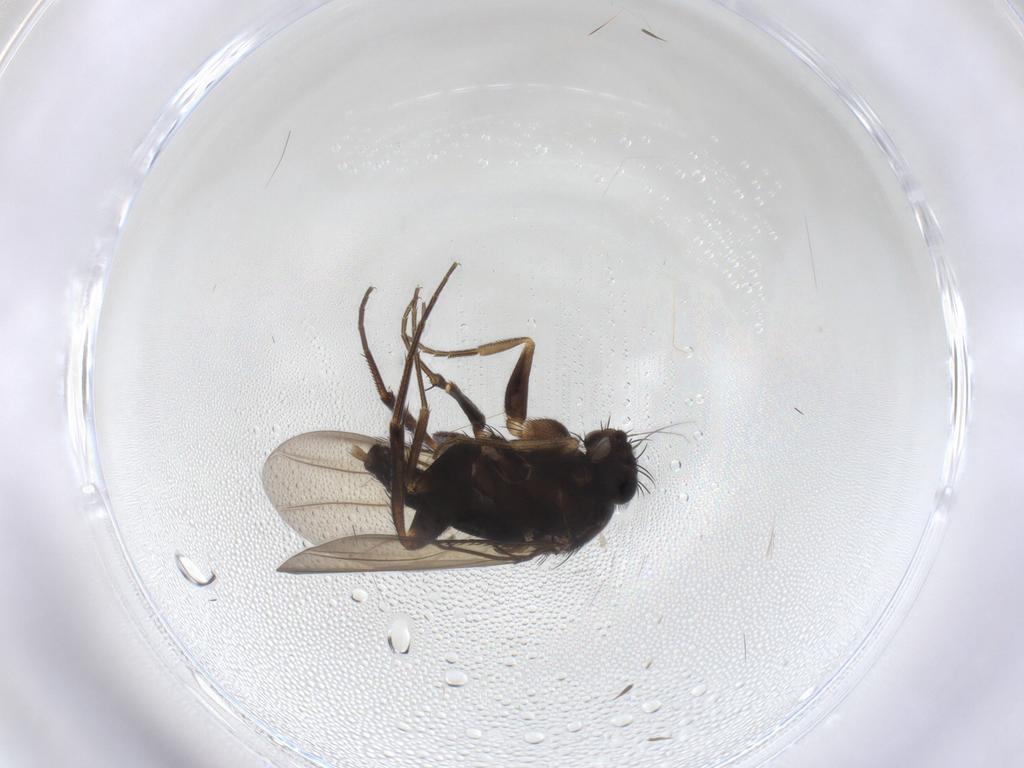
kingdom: Animalia
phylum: Arthropoda
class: Insecta
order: Diptera
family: Phoridae
